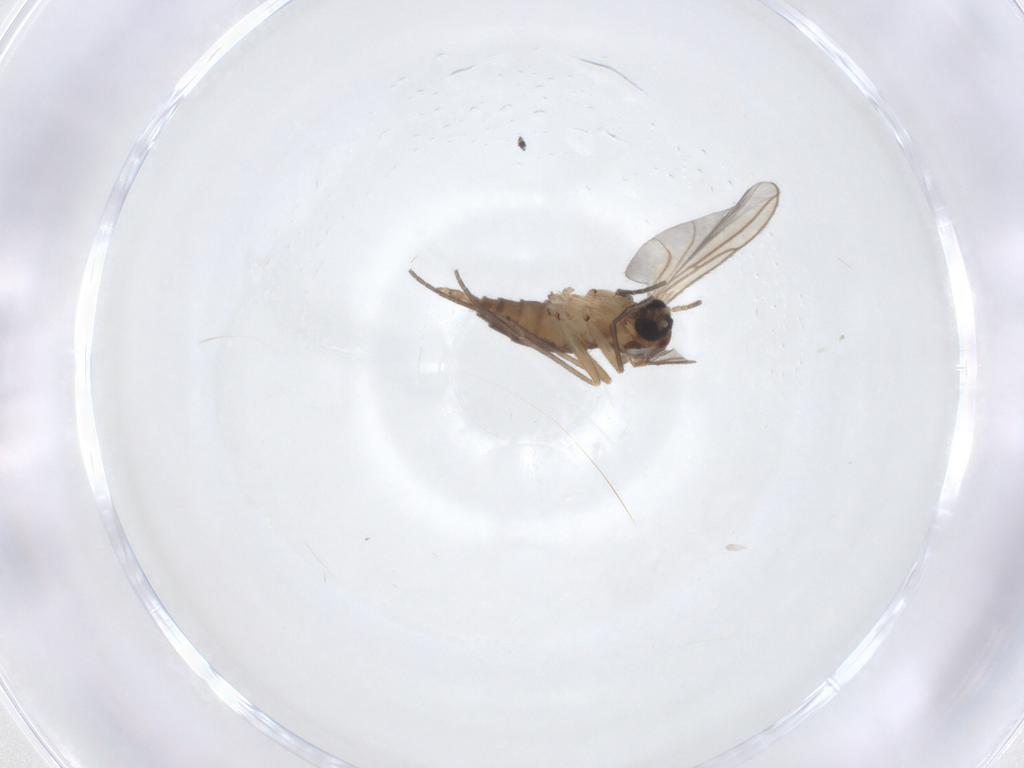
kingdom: Animalia
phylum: Arthropoda
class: Insecta
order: Diptera
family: Sciaridae
